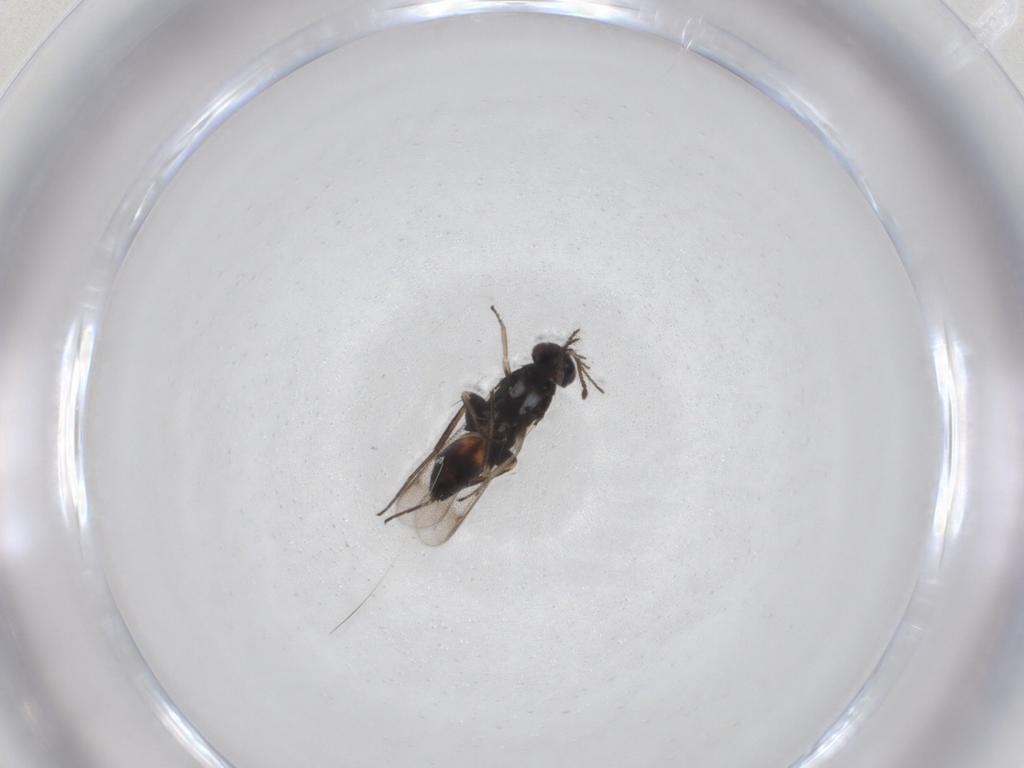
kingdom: Animalia
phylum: Arthropoda
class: Insecta
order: Hymenoptera
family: Scelionidae
